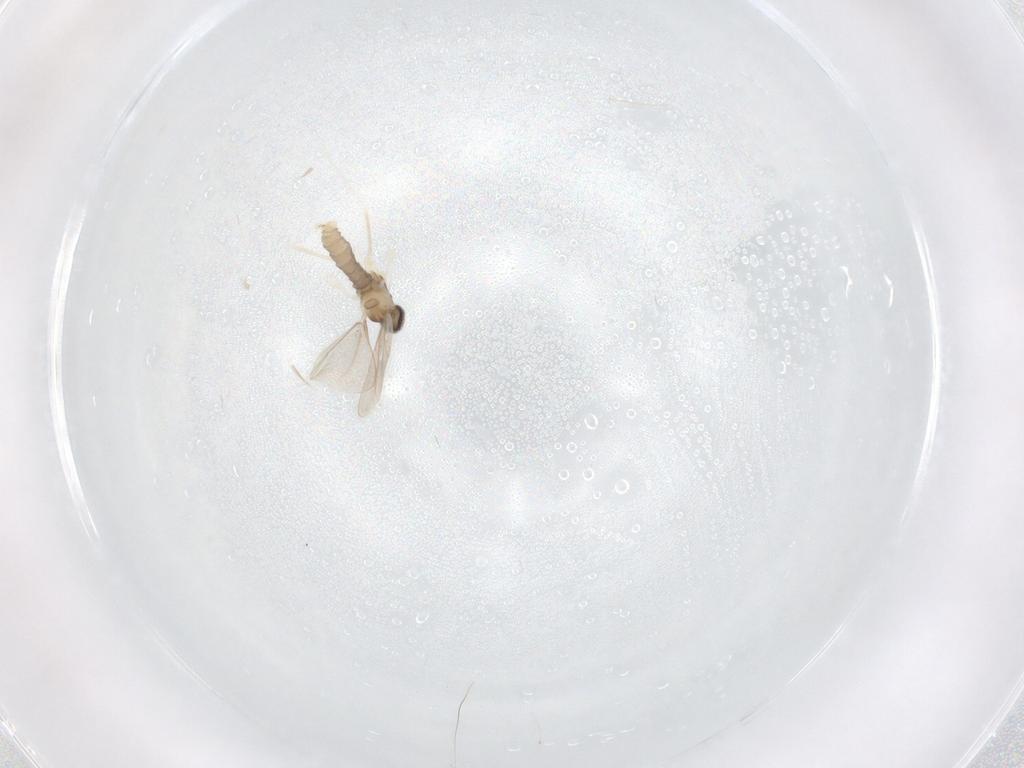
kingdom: Animalia
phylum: Arthropoda
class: Insecta
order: Diptera
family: Cecidomyiidae
